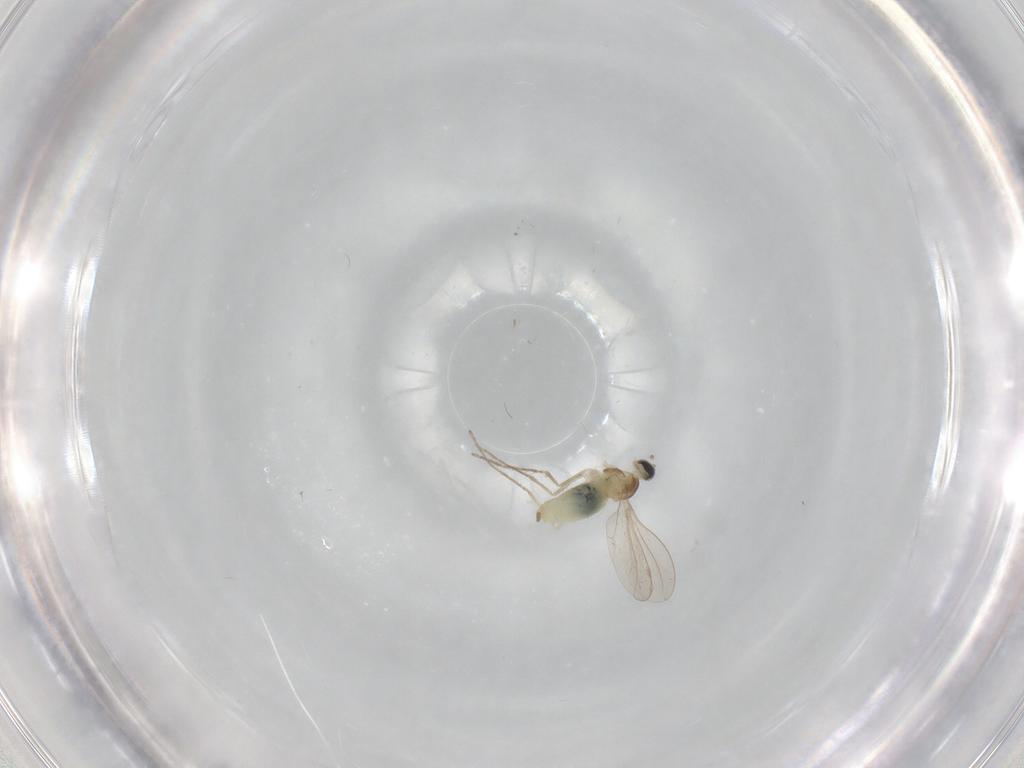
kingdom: Animalia
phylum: Arthropoda
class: Insecta
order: Diptera
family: Cecidomyiidae
